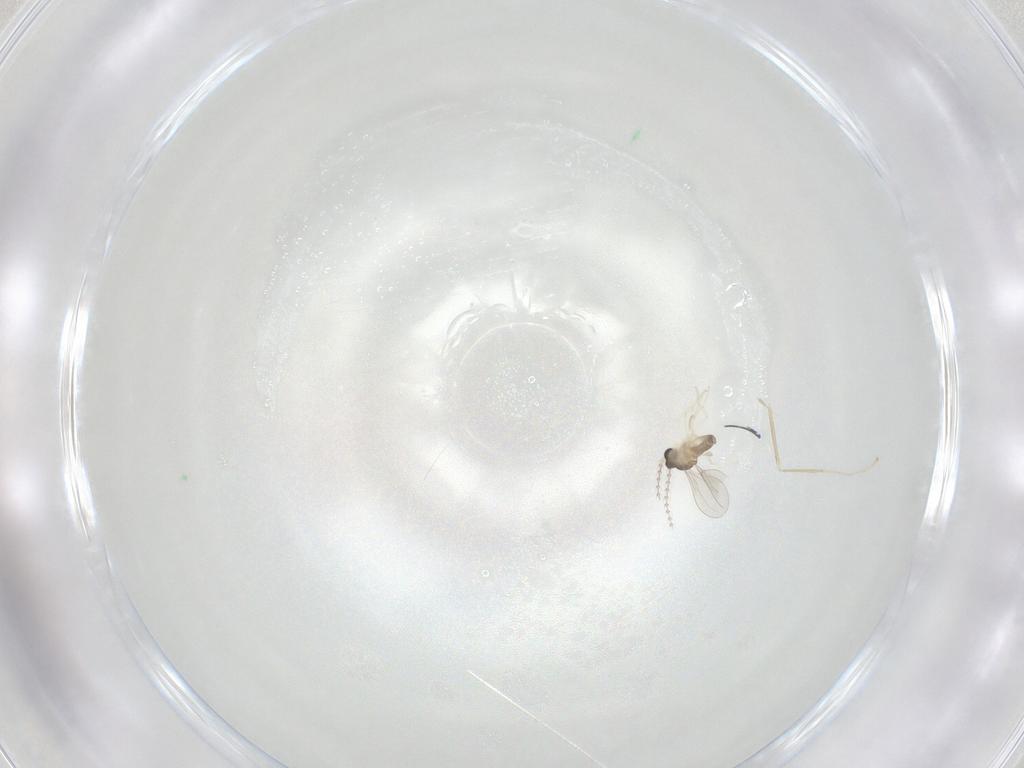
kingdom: Animalia
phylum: Arthropoda
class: Insecta
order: Diptera
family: Cecidomyiidae
